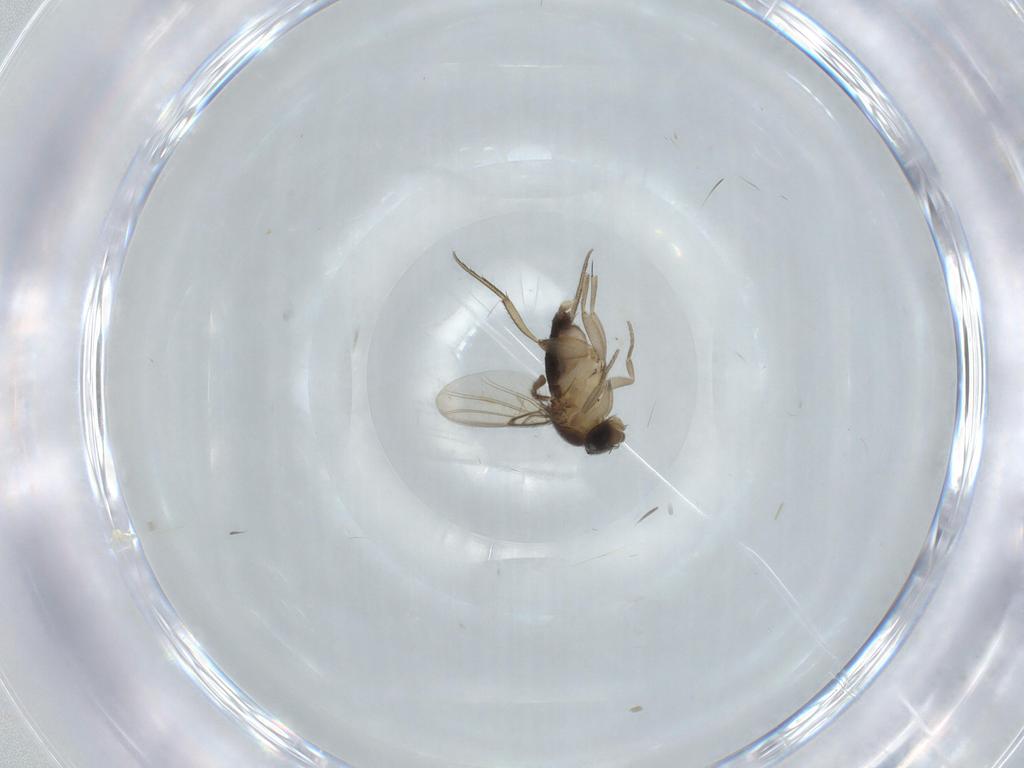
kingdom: Animalia
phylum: Arthropoda
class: Insecta
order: Diptera
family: Phoridae
